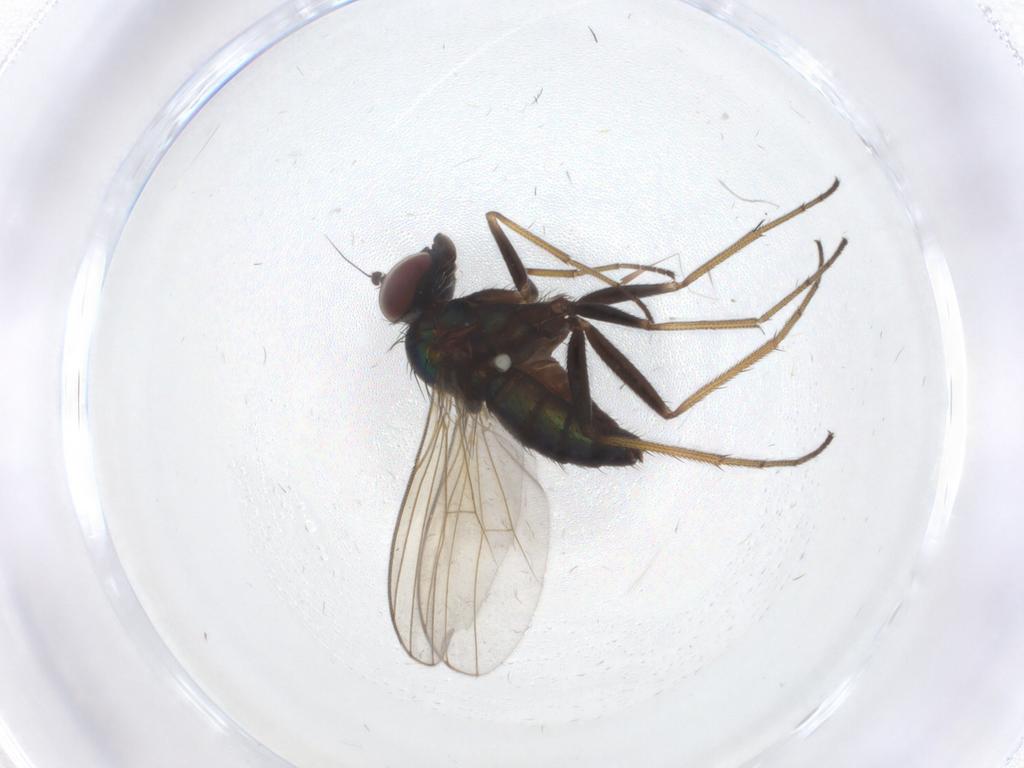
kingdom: Animalia
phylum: Arthropoda
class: Insecta
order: Diptera
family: Dolichopodidae
